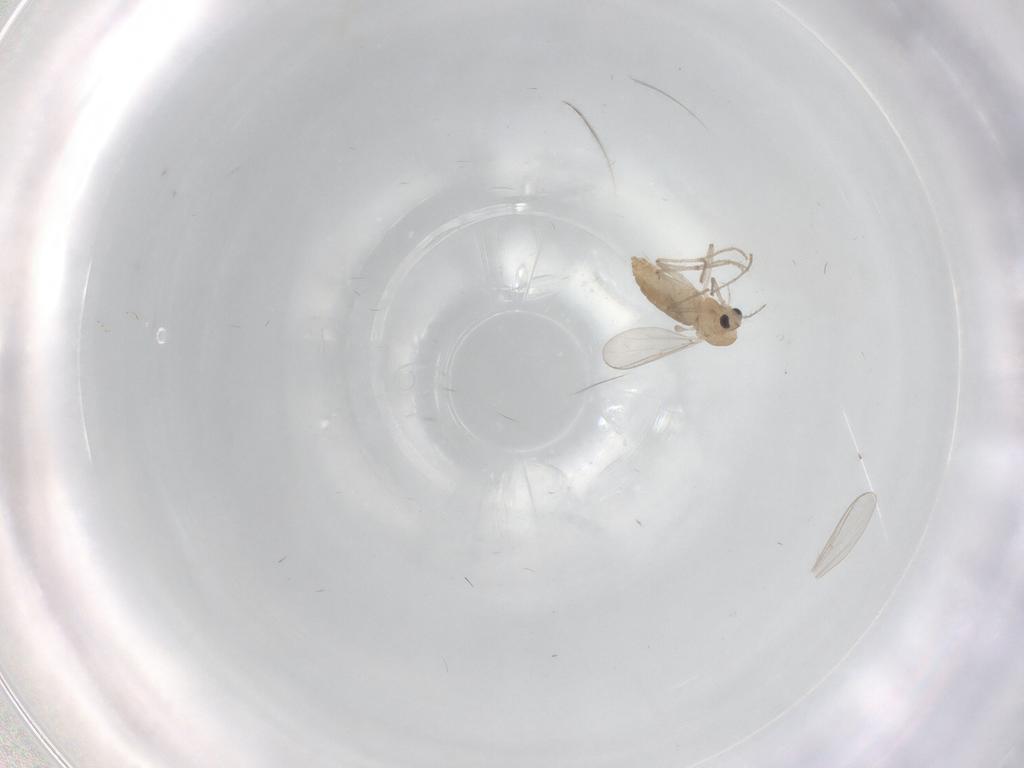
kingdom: Animalia
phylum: Arthropoda
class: Insecta
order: Diptera
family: Chironomidae
